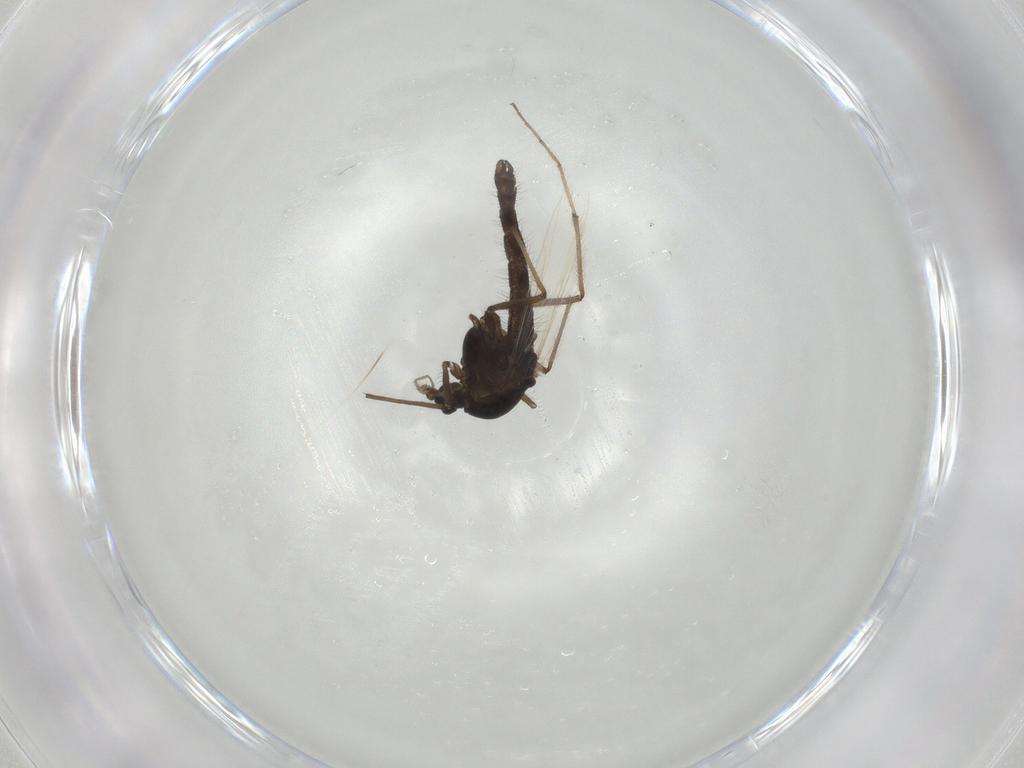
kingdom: Animalia
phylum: Arthropoda
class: Insecta
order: Diptera
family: Chironomidae
